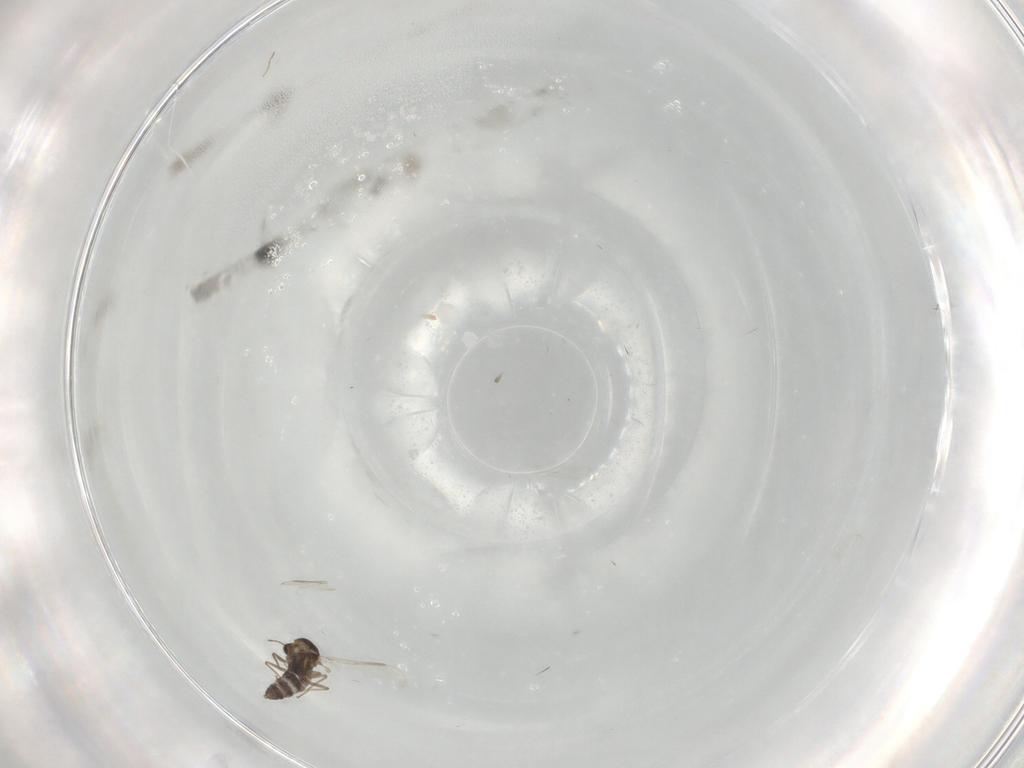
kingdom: Animalia
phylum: Arthropoda
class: Insecta
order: Diptera
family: Chironomidae
